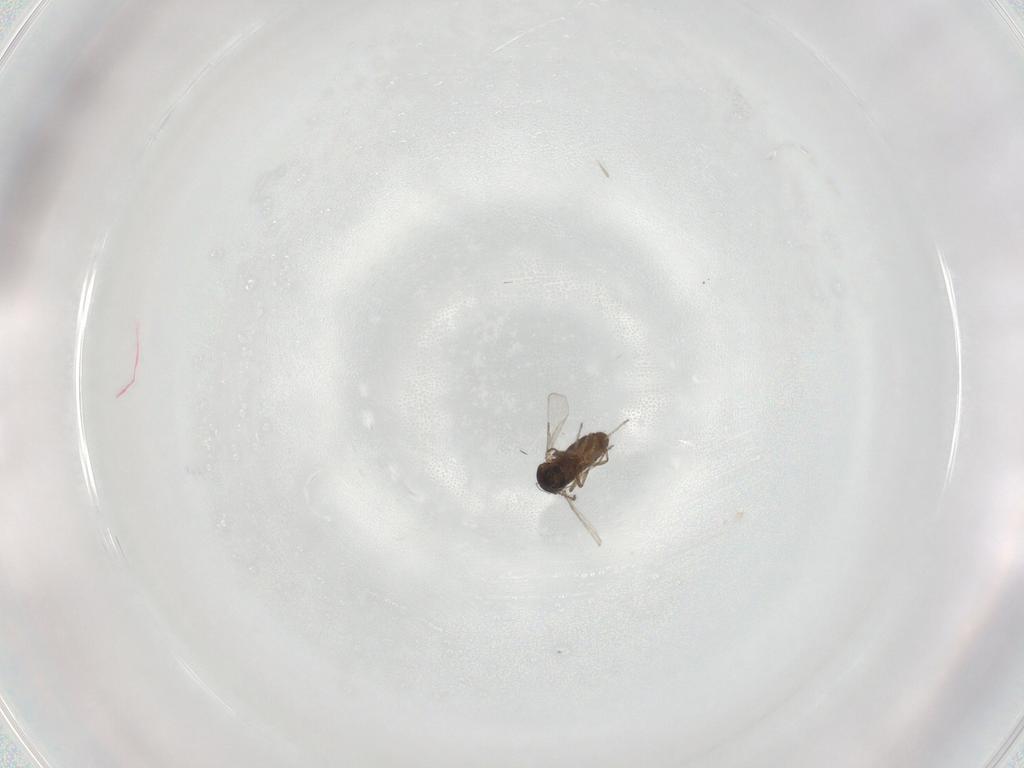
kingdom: Animalia
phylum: Arthropoda
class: Insecta
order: Diptera
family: Ceratopogonidae
